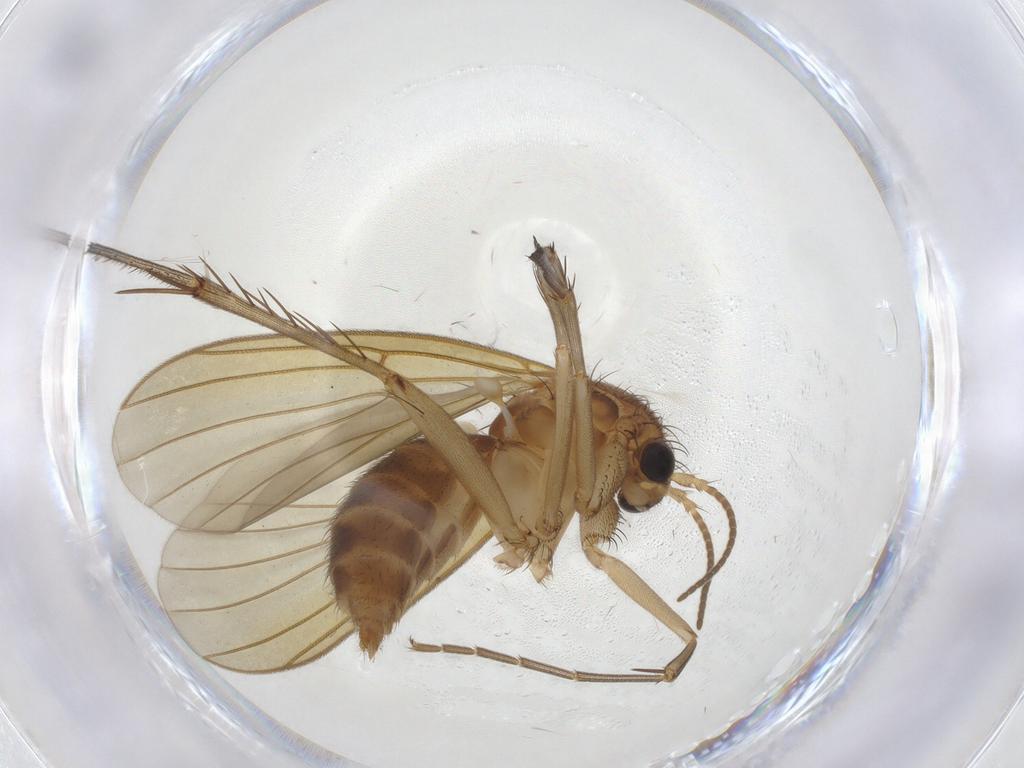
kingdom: Animalia
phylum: Arthropoda
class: Insecta
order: Diptera
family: Mycetophilidae
